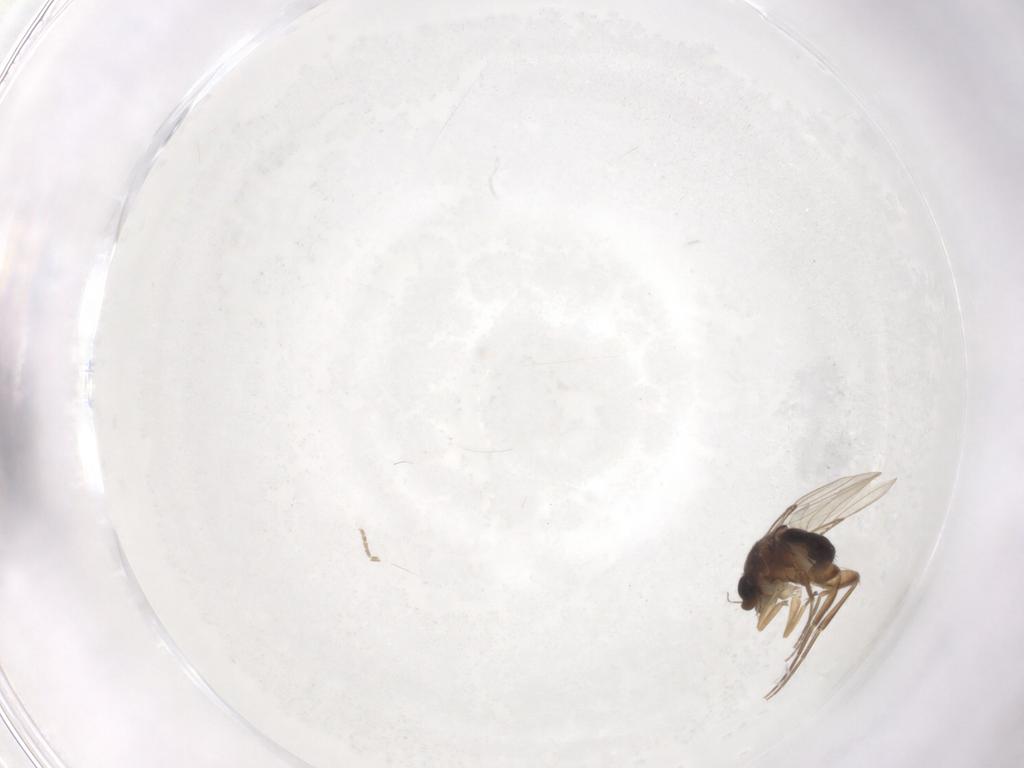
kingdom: Animalia
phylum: Arthropoda
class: Insecta
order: Diptera
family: Phoridae
